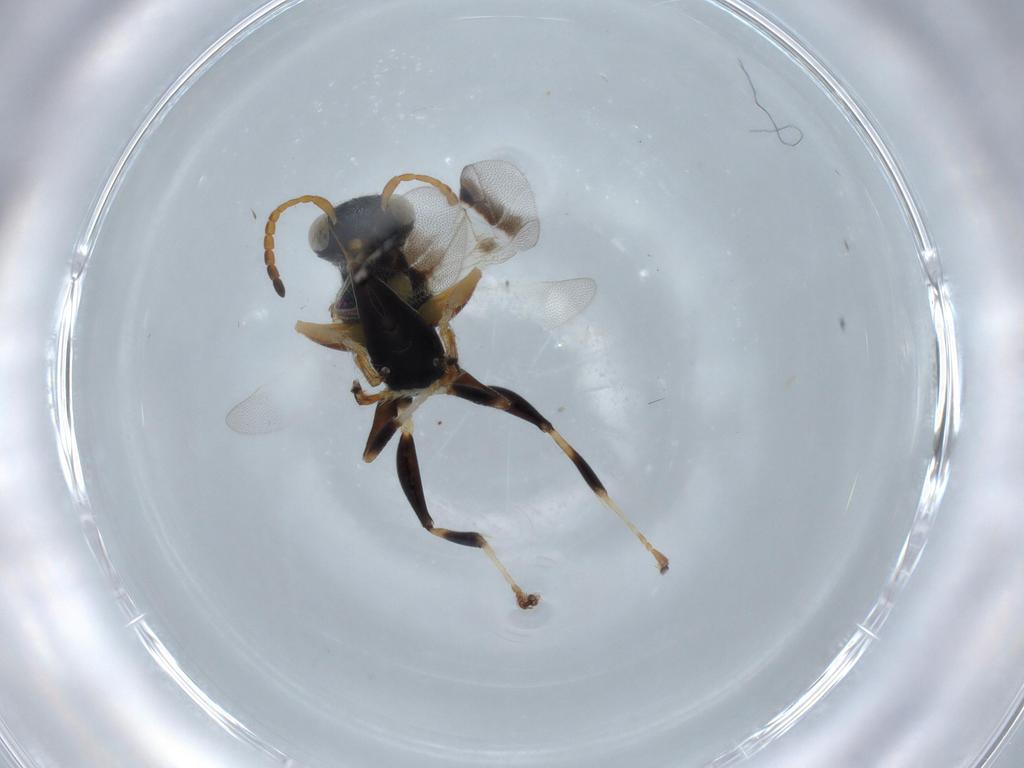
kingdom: Animalia
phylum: Arthropoda
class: Insecta
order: Hymenoptera
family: Dryinidae
